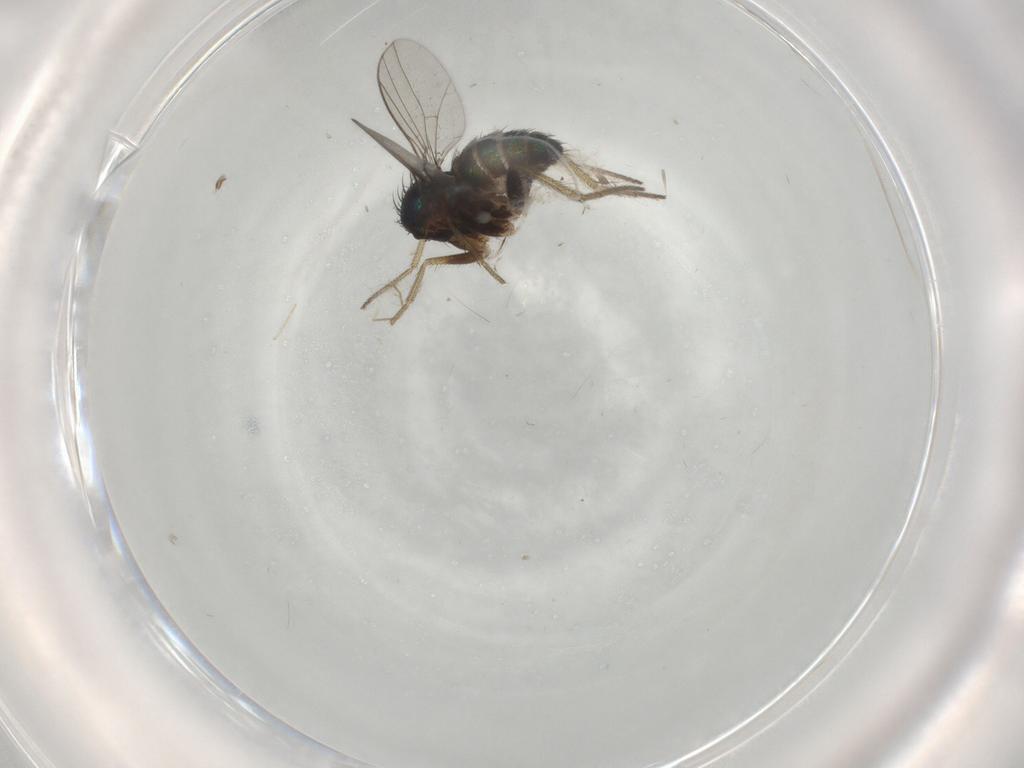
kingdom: Animalia
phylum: Arthropoda
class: Insecta
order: Diptera
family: Dolichopodidae
